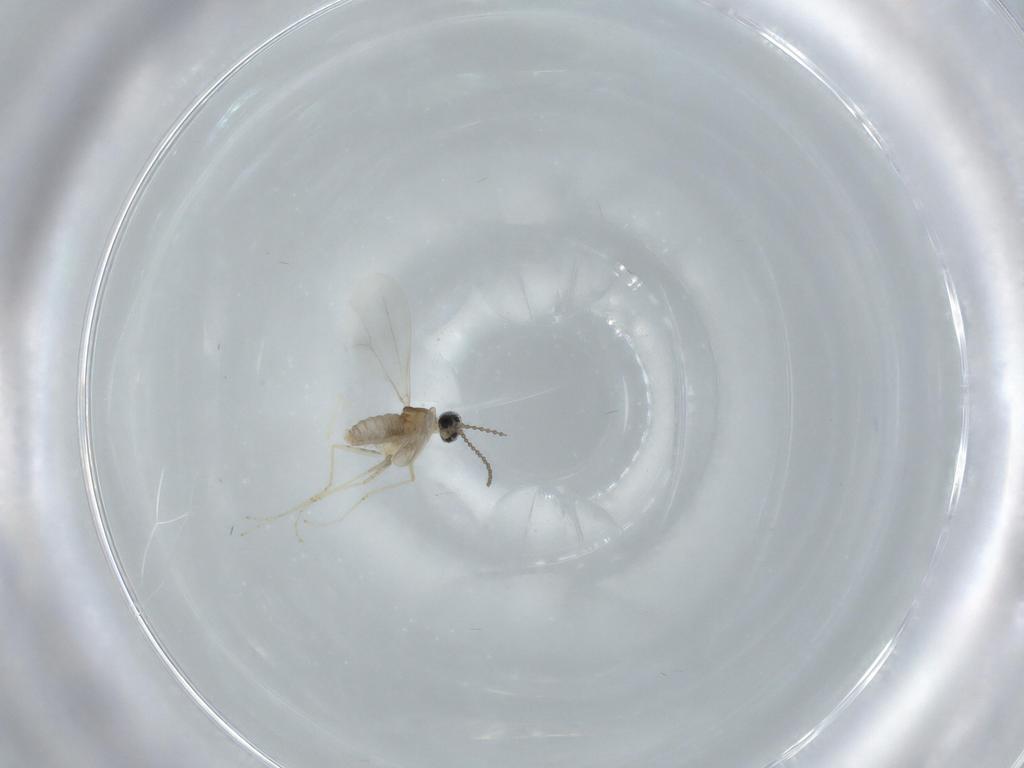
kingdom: Animalia
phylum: Arthropoda
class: Insecta
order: Diptera
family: Cecidomyiidae
